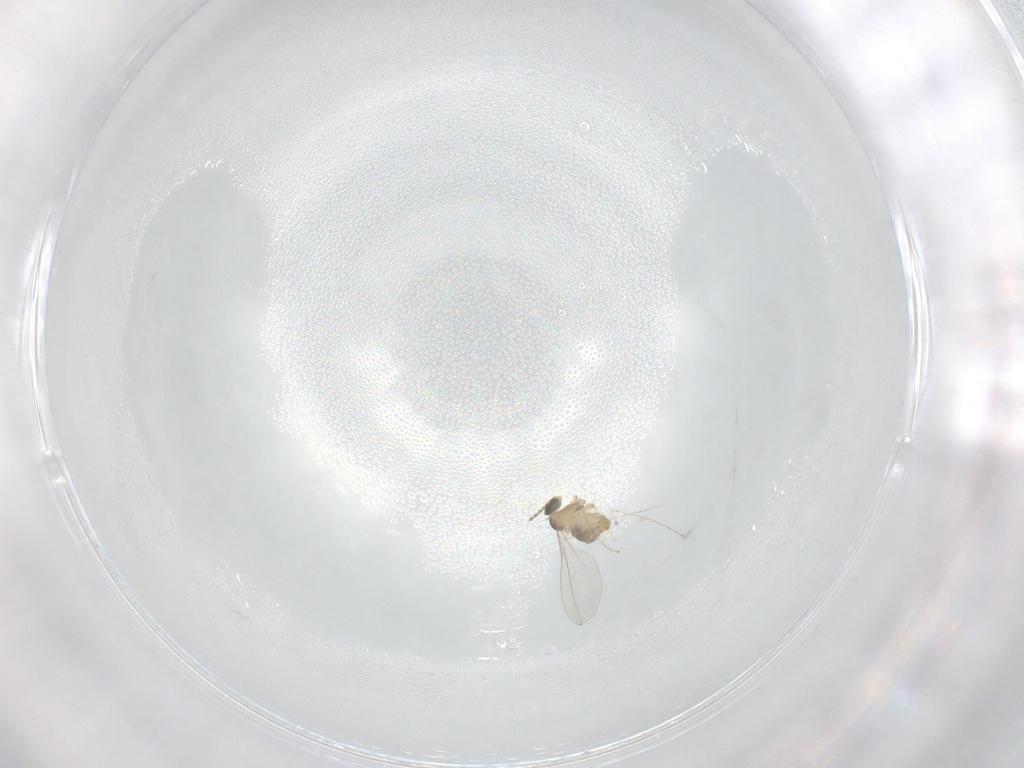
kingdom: Animalia
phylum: Arthropoda
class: Insecta
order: Diptera
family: Cecidomyiidae
